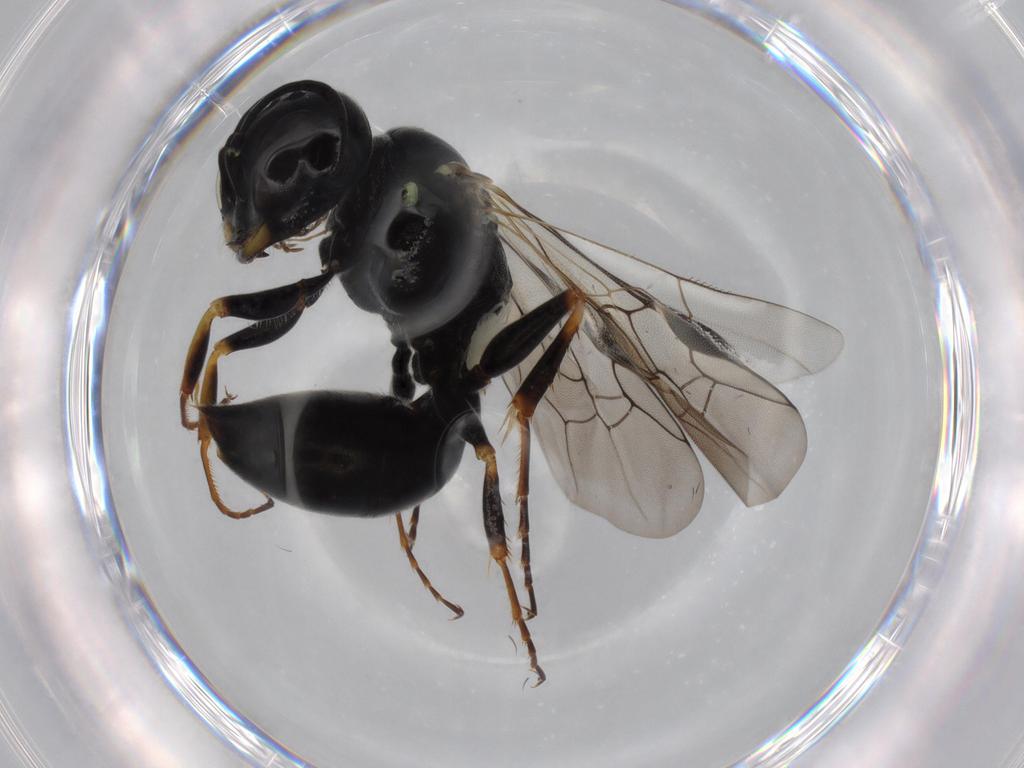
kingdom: Animalia
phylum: Arthropoda
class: Insecta
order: Hymenoptera
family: Pemphredonidae
